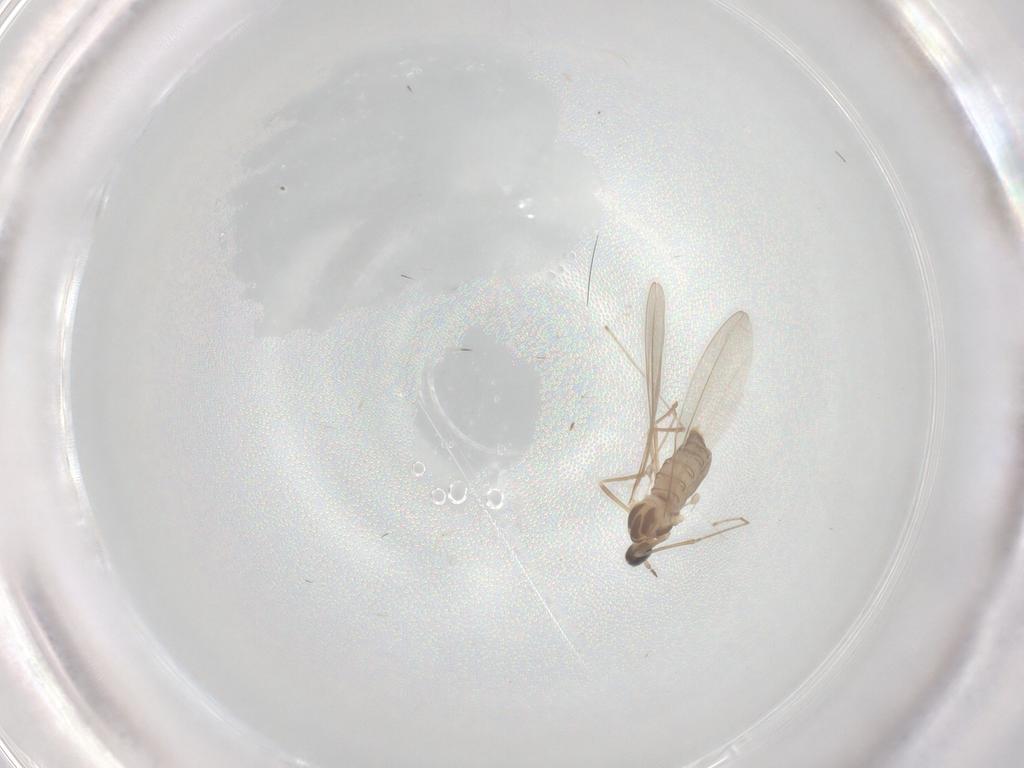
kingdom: Animalia
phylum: Arthropoda
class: Insecta
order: Diptera
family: Cecidomyiidae
